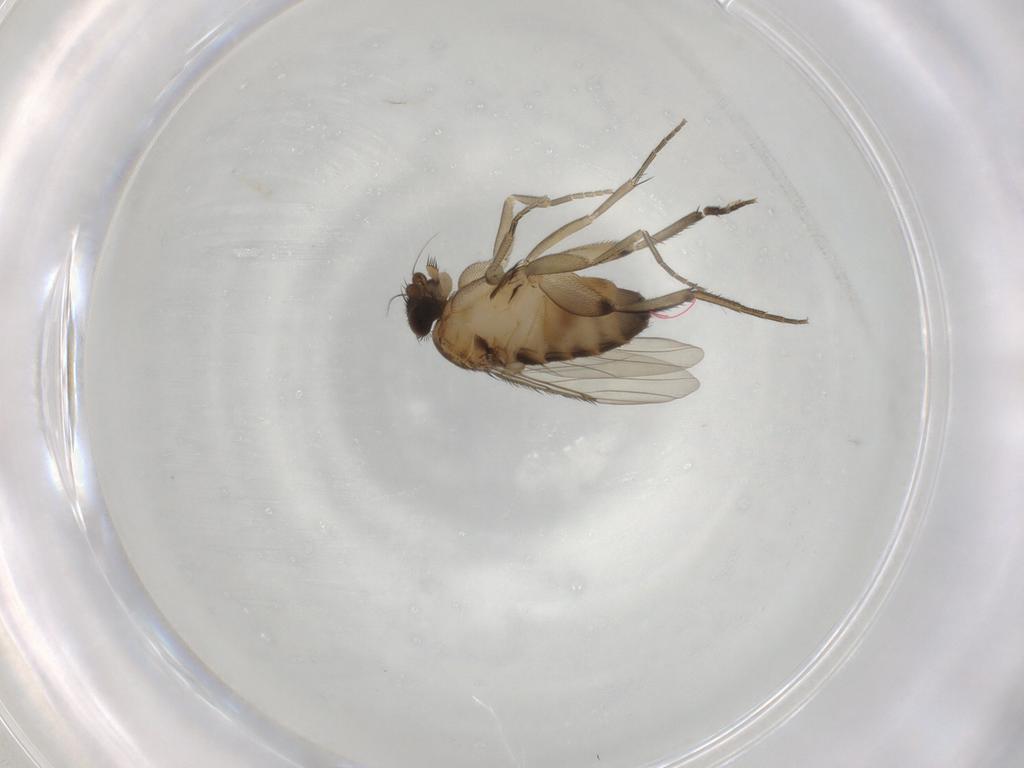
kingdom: Animalia
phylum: Arthropoda
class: Insecta
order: Diptera
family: Phoridae
